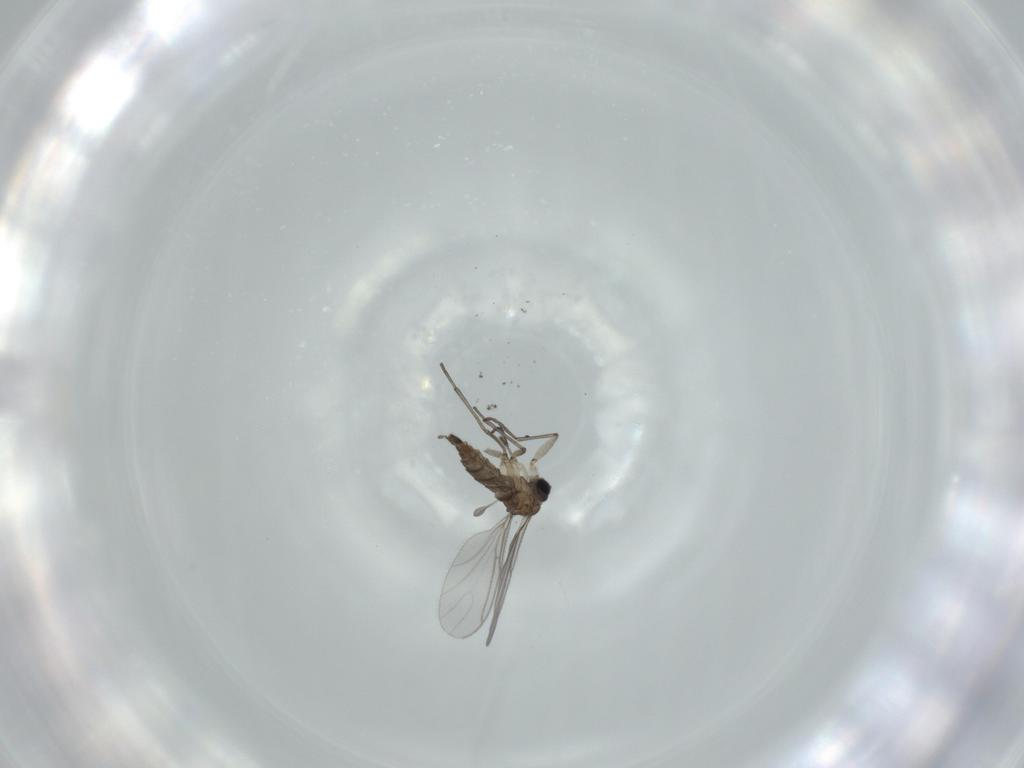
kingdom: Animalia
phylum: Arthropoda
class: Insecta
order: Diptera
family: Sciaridae
